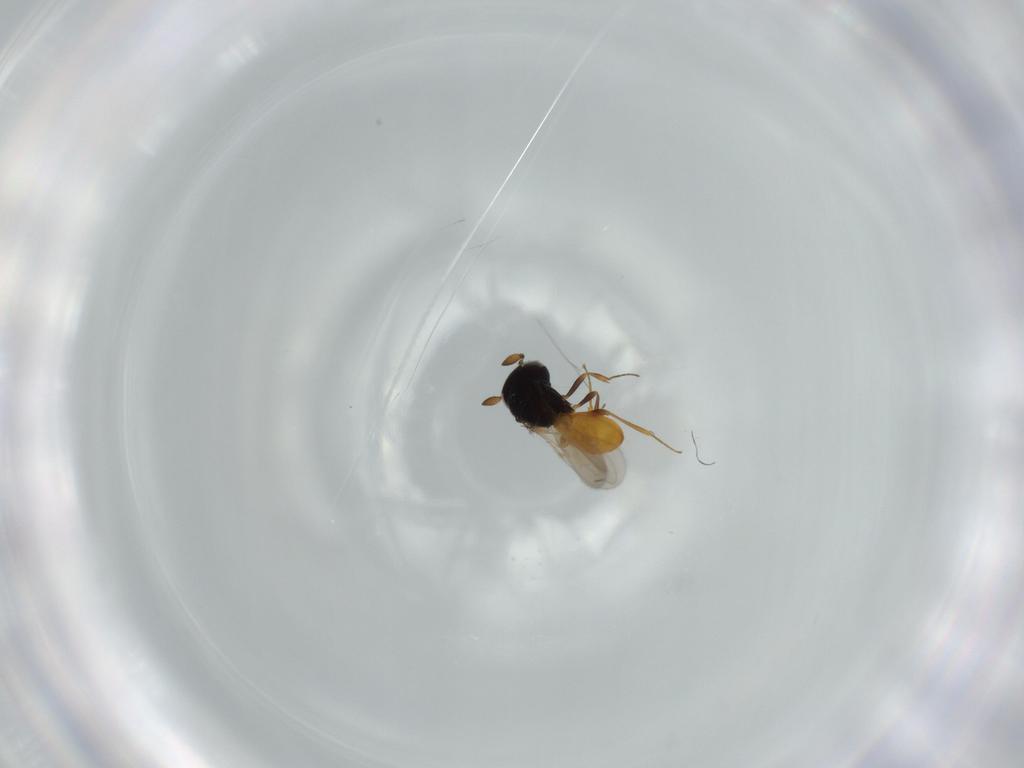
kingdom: Animalia
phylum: Arthropoda
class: Insecta
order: Hymenoptera
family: Scelionidae
